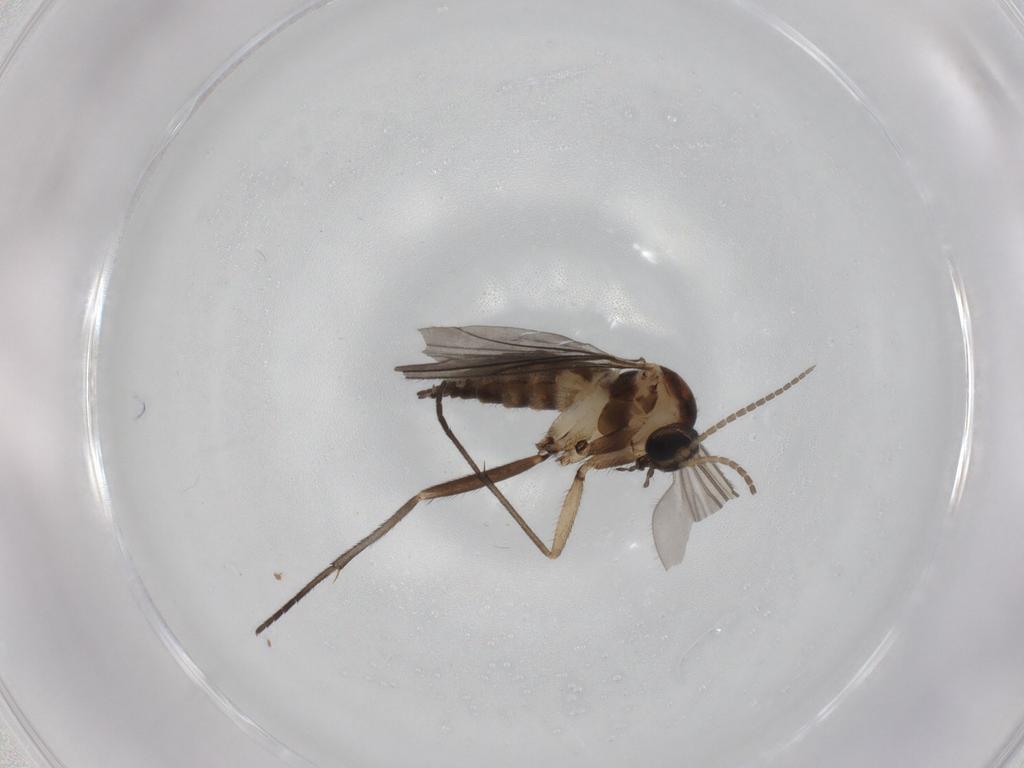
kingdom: Animalia
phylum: Arthropoda
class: Insecta
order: Diptera
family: Sciaridae
